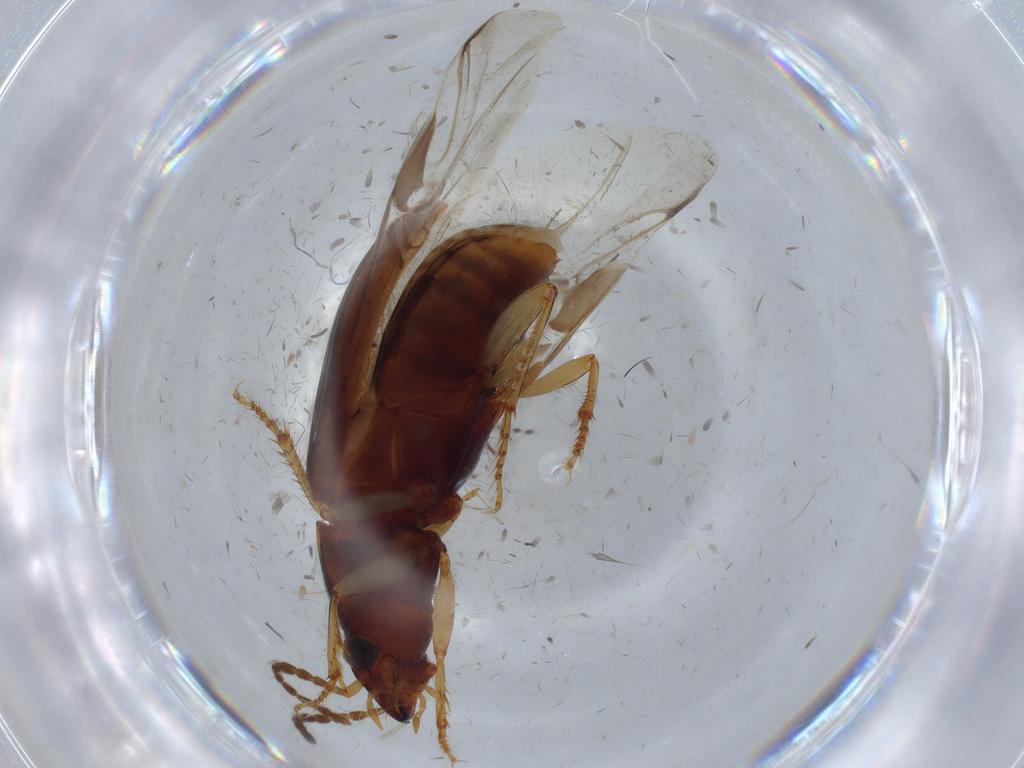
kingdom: Animalia
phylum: Arthropoda
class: Insecta
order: Coleoptera
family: Carabidae
